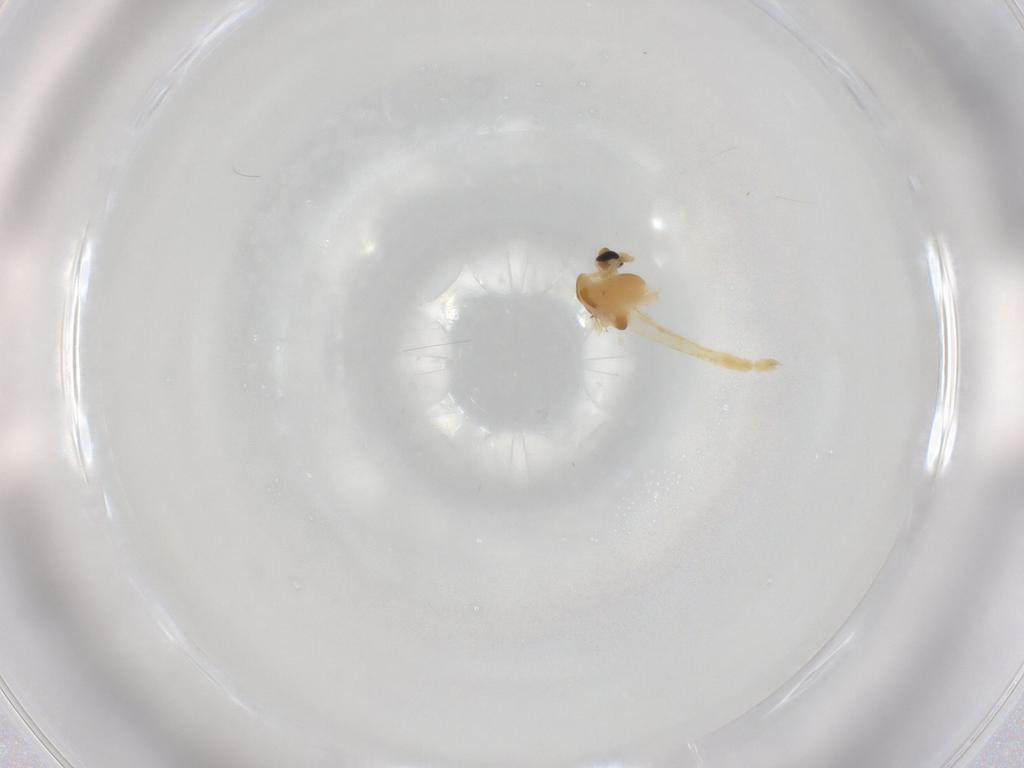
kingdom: Animalia
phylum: Arthropoda
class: Insecta
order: Diptera
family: Chironomidae
